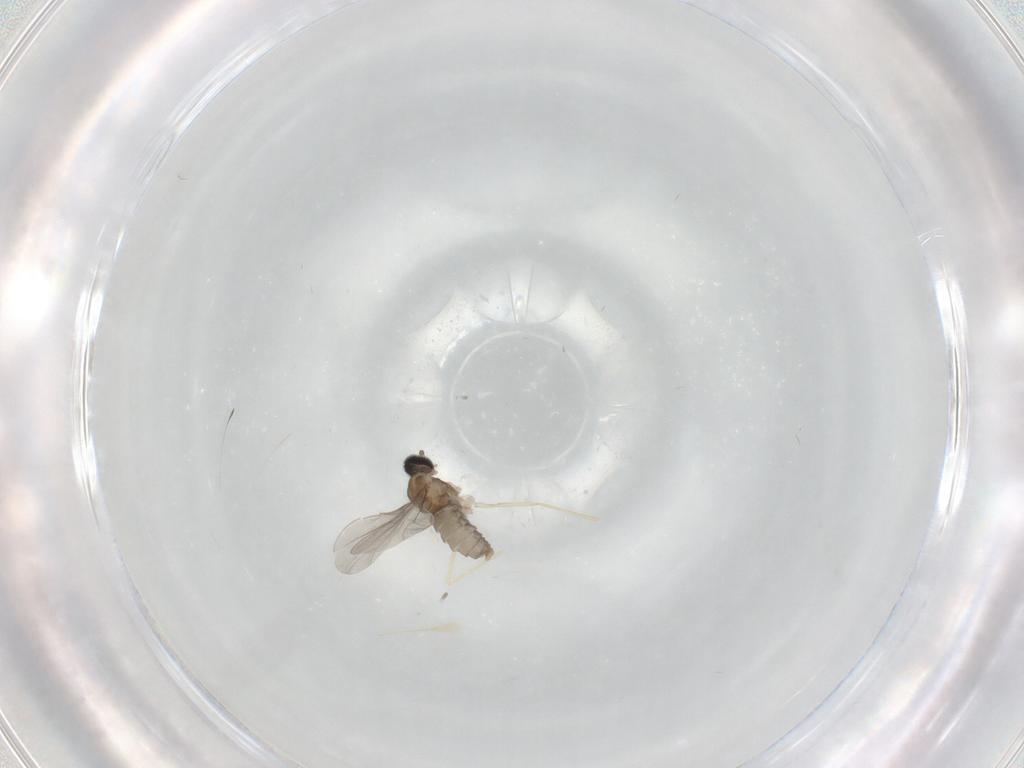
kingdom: Animalia
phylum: Arthropoda
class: Insecta
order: Diptera
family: Cecidomyiidae
